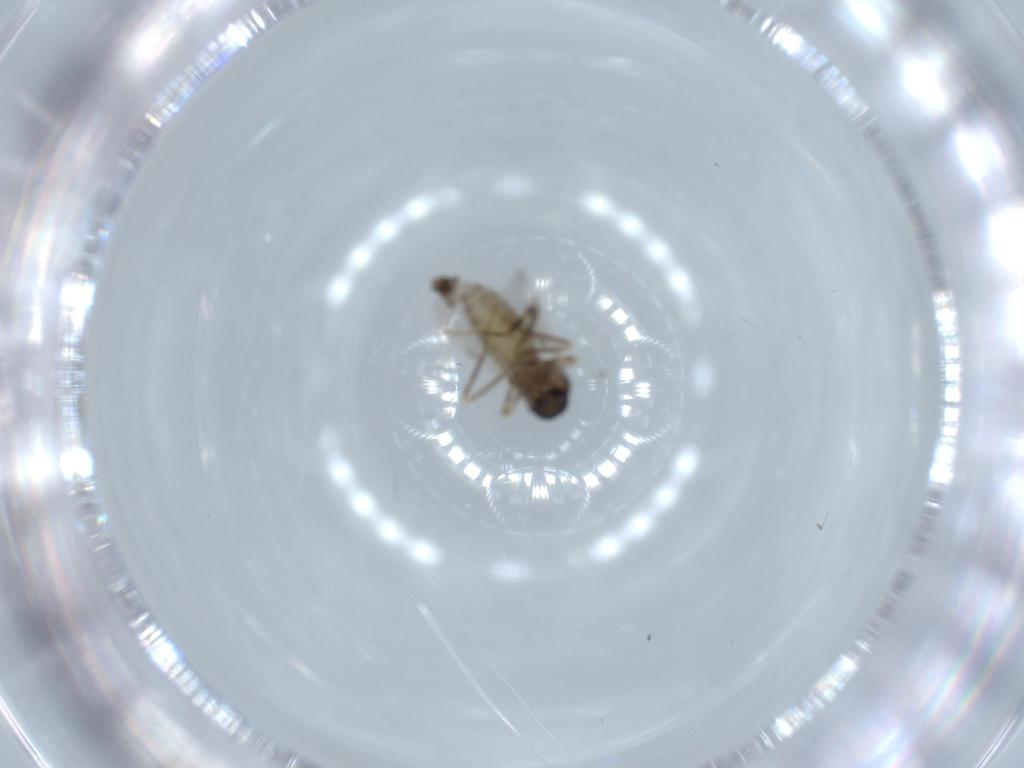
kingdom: Animalia
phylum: Arthropoda
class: Insecta
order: Diptera
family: Ceratopogonidae
